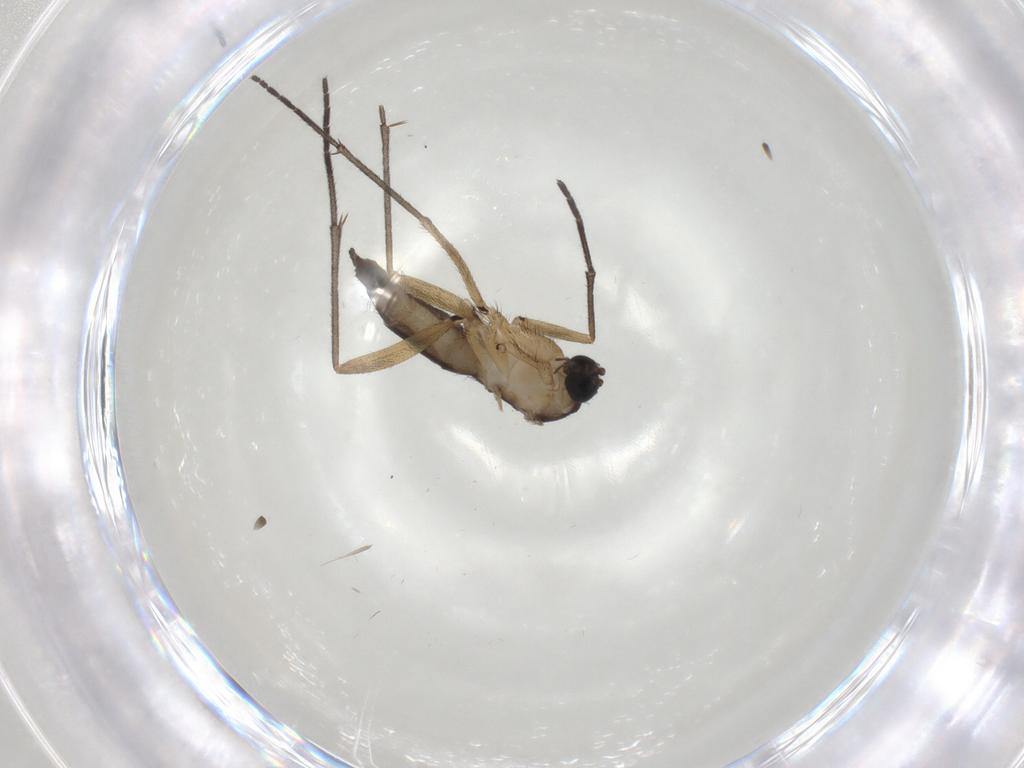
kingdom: Animalia
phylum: Arthropoda
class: Insecta
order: Diptera
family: Sciaridae
